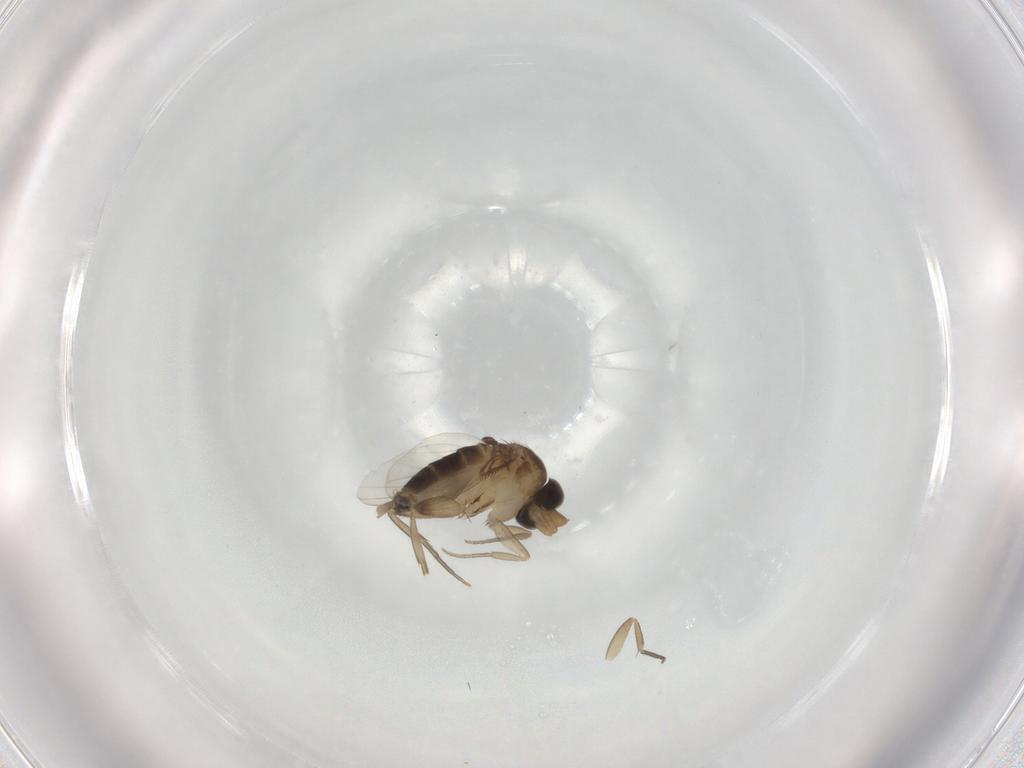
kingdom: Animalia
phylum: Arthropoda
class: Insecta
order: Diptera
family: Phoridae
